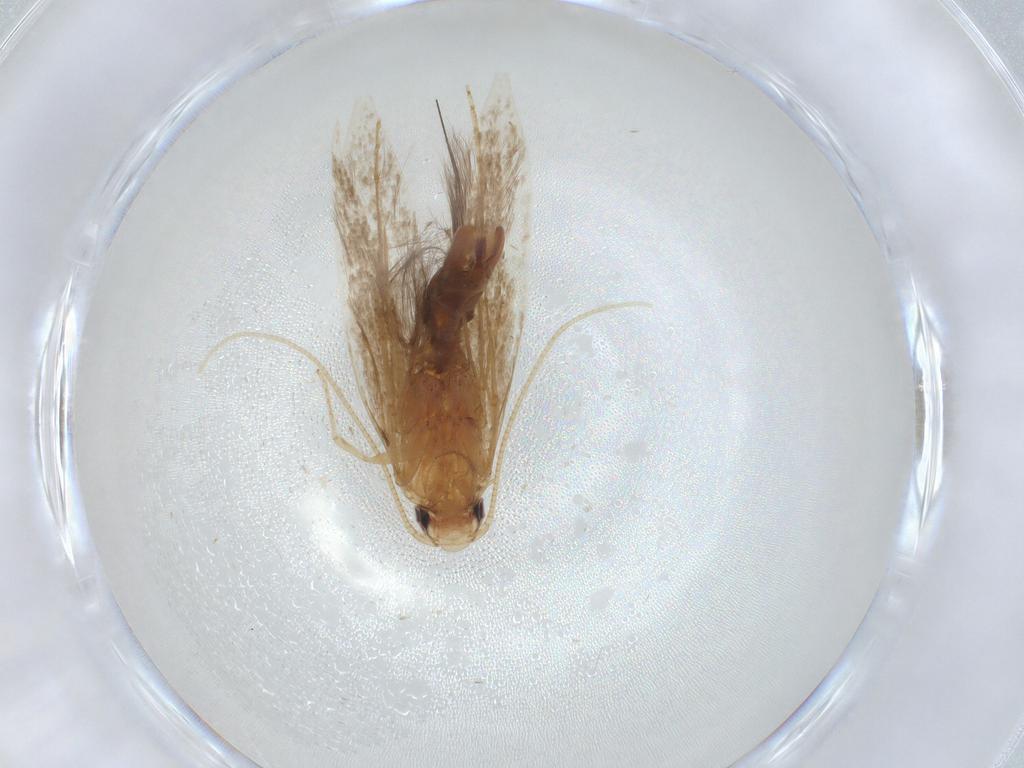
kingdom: Animalia
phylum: Arthropoda
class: Insecta
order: Lepidoptera
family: Tineidae
